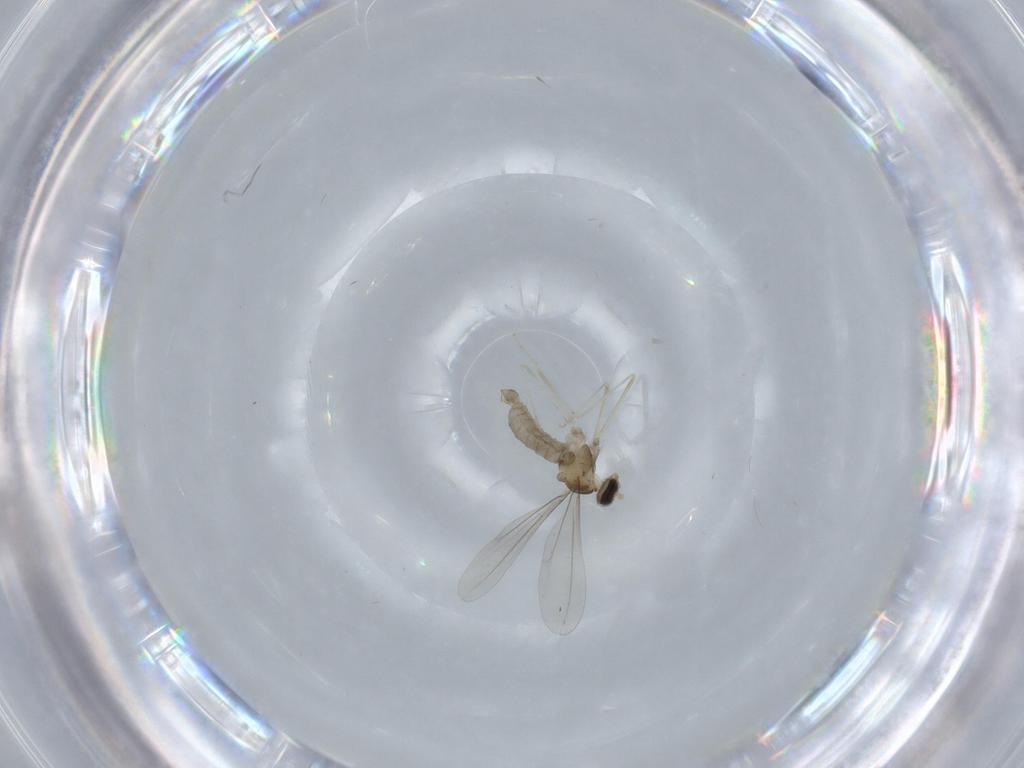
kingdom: Animalia
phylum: Arthropoda
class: Insecta
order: Diptera
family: Cecidomyiidae
